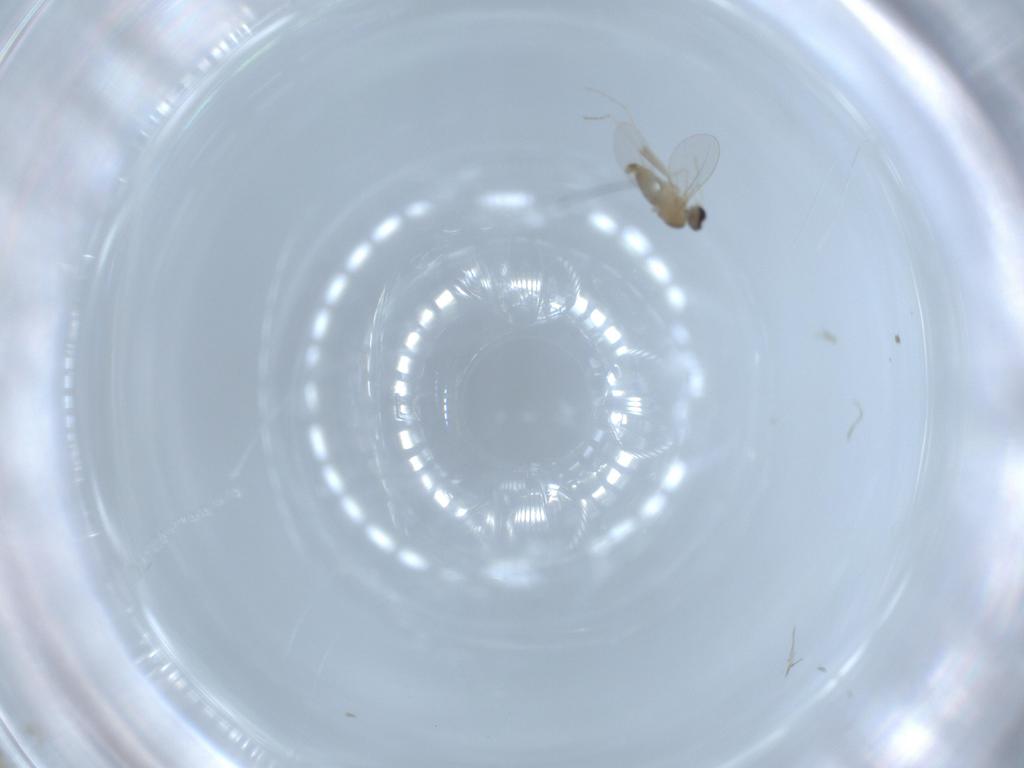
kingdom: Animalia
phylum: Arthropoda
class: Insecta
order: Diptera
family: Cecidomyiidae
